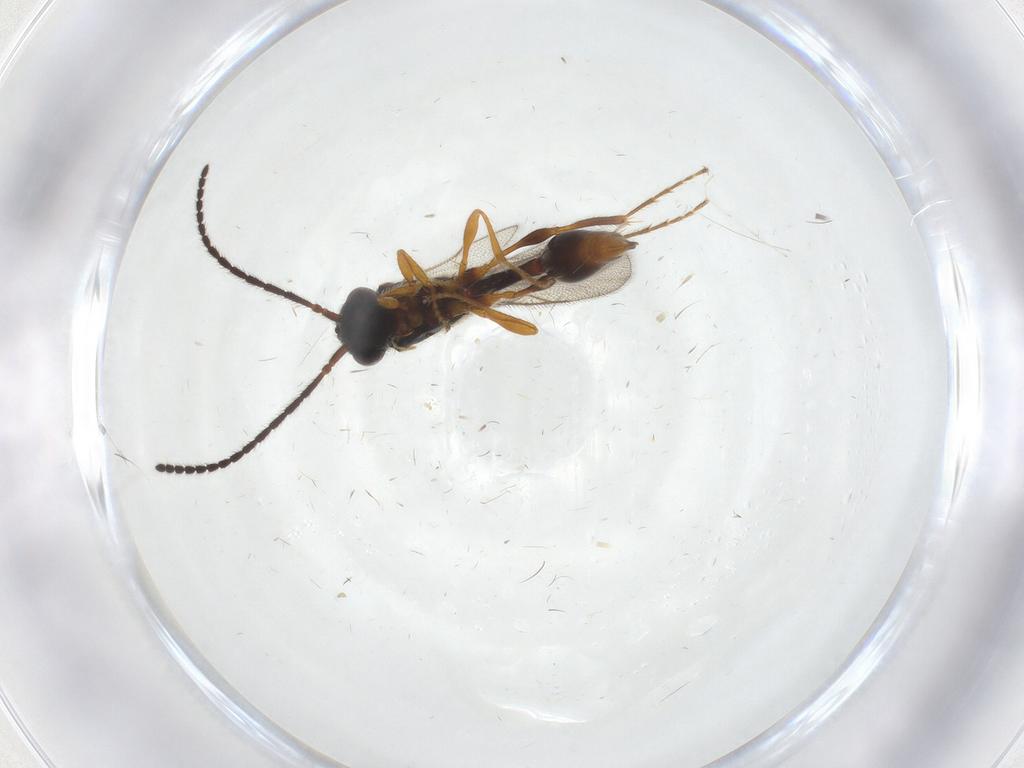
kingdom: Animalia
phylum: Arthropoda
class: Insecta
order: Hymenoptera
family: Diapriidae
